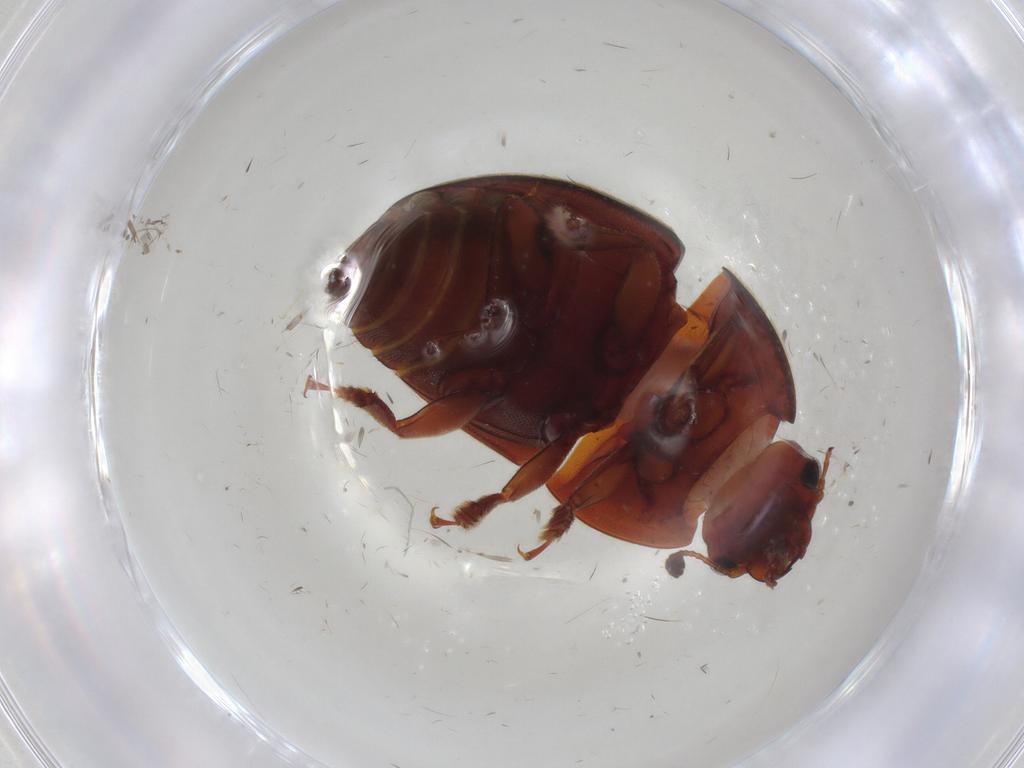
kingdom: Animalia
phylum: Arthropoda
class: Insecta
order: Coleoptera
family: Nitidulidae
